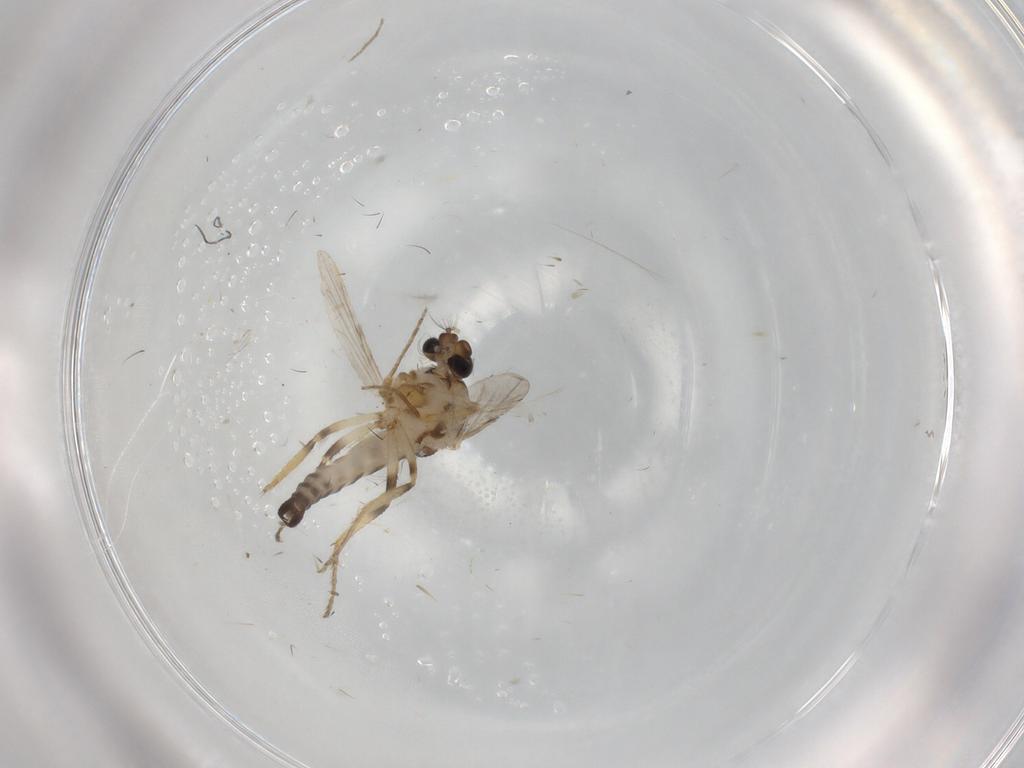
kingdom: Animalia
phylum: Arthropoda
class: Insecta
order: Diptera
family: Ceratopogonidae
